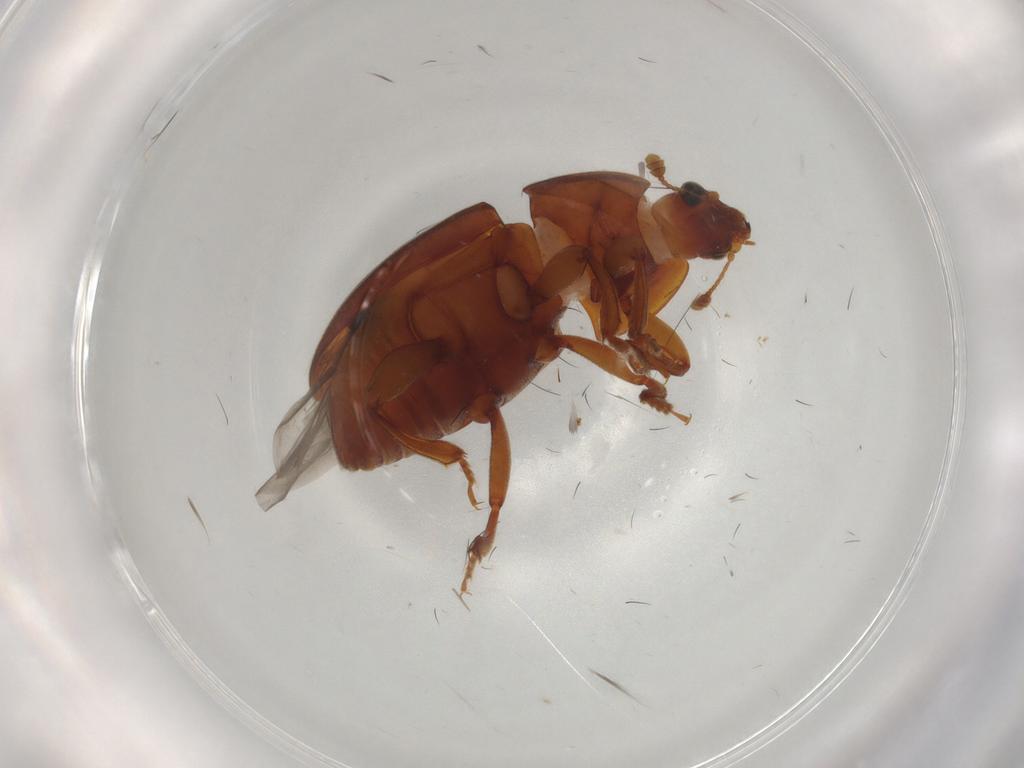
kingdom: Animalia
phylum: Arthropoda
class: Insecta
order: Coleoptera
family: Nitidulidae
